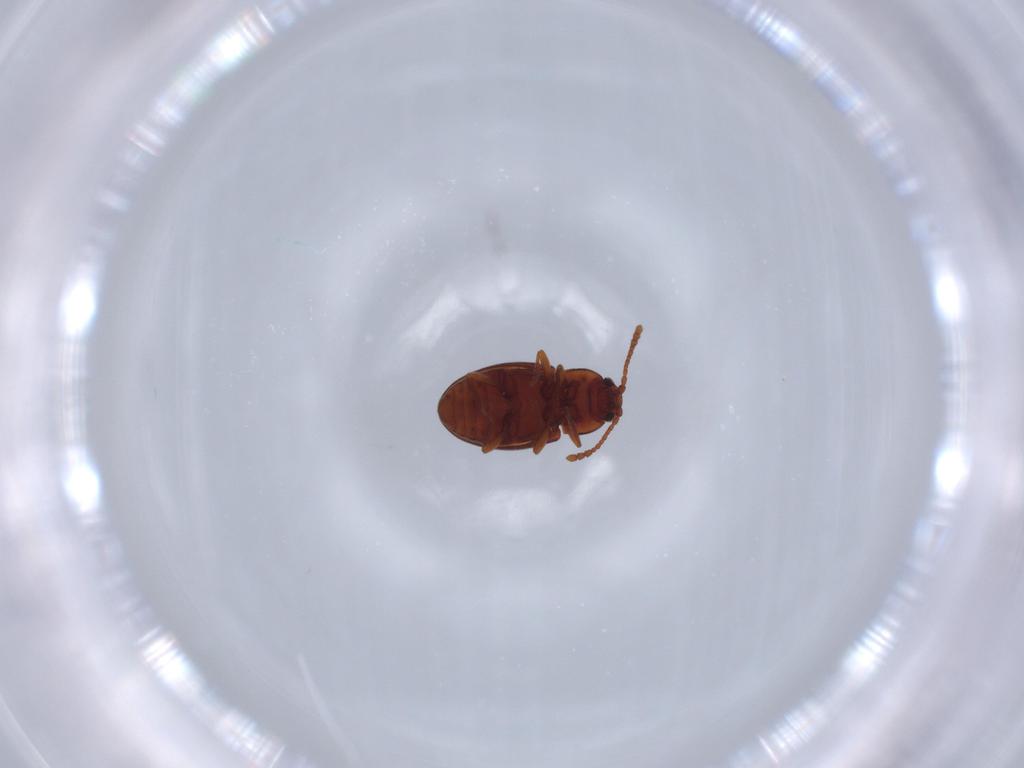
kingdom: Animalia
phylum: Arthropoda
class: Insecta
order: Coleoptera
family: Cryptophagidae
